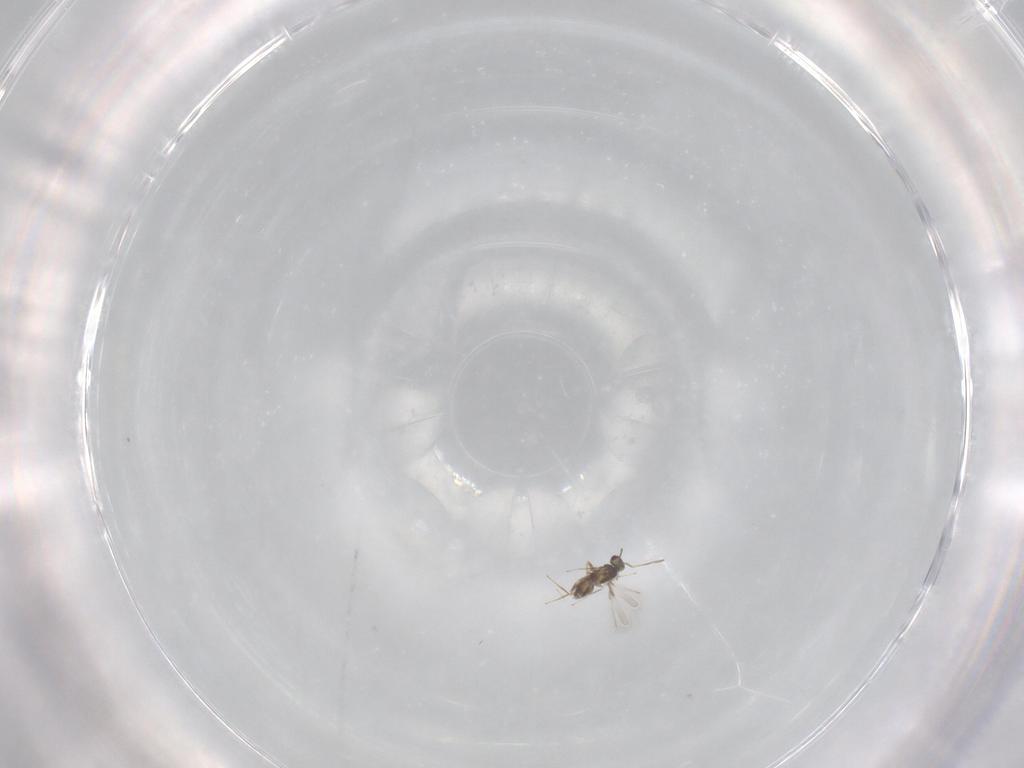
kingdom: Animalia
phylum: Arthropoda
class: Insecta
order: Hymenoptera
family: Mymaridae
